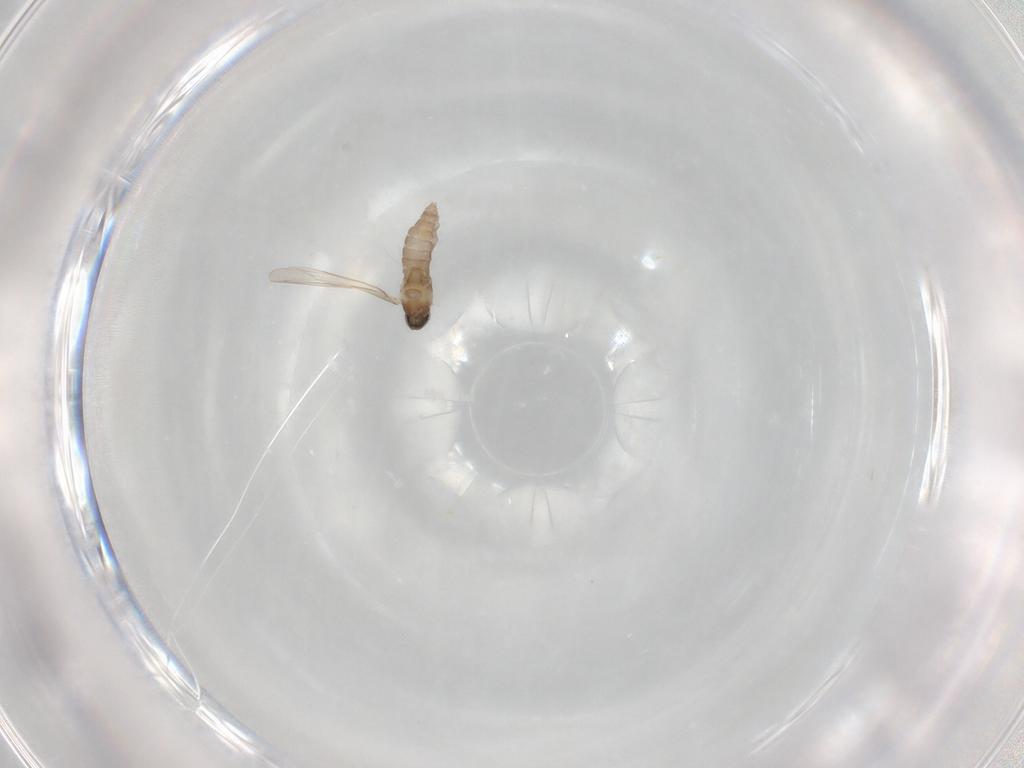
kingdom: Animalia
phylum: Arthropoda
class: Insecta
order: Diptera
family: Cecidomyiidae
